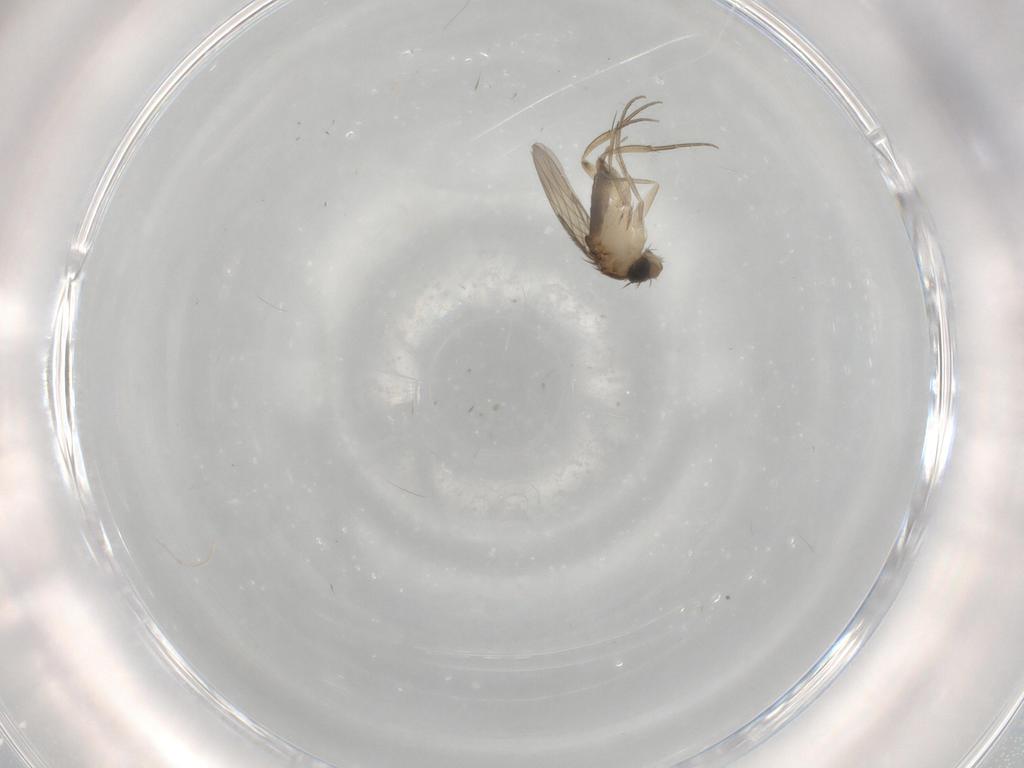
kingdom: Animalia
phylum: Arthropoda
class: Insecta
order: Diptera
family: Phoridae
